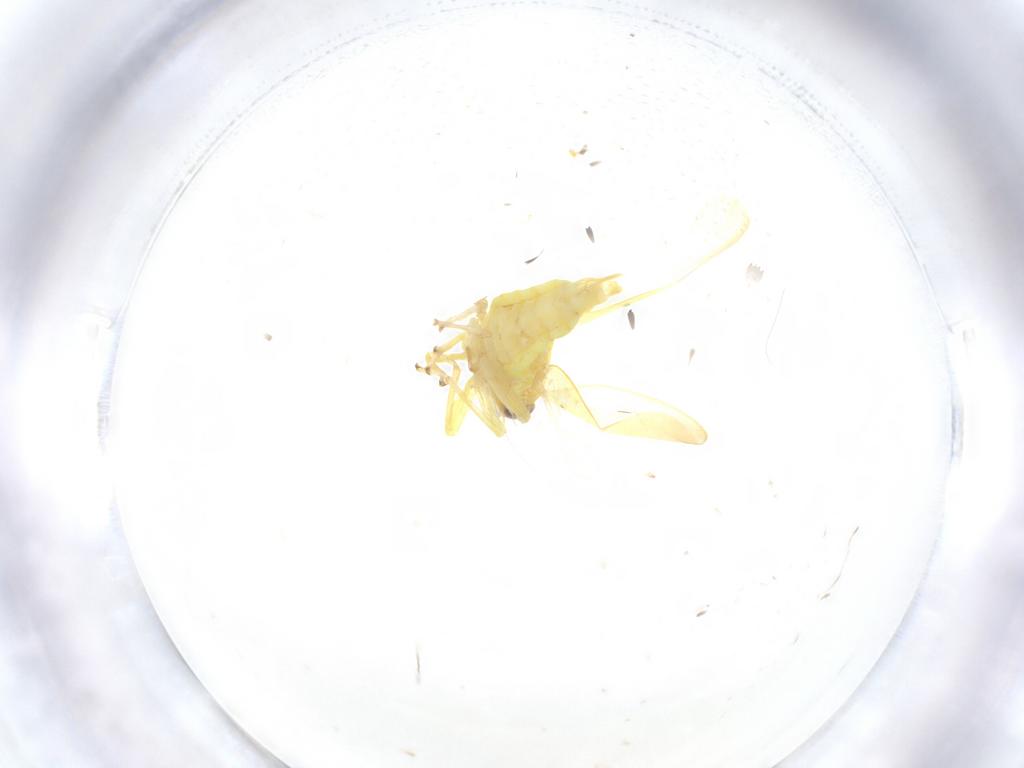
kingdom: Animalia
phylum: Arthropoda
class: Insecta
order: Hemiptera
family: Cicadellidae
